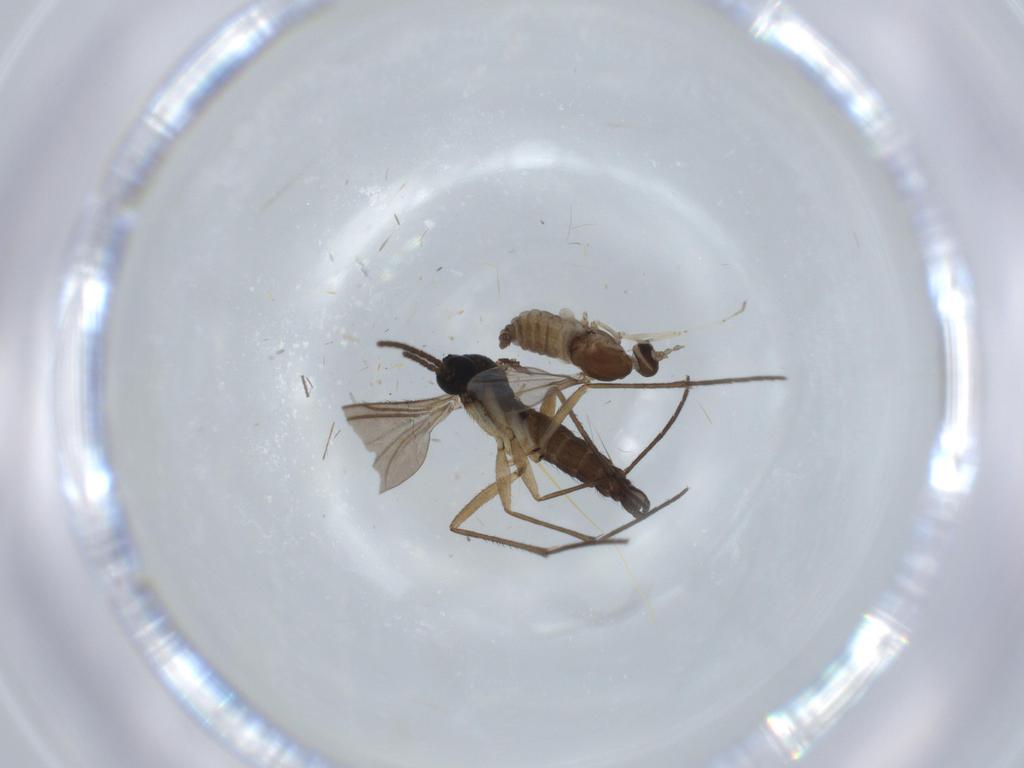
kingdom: Animalia
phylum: Arthropoda
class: Insecta
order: Diptera
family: Cecidomyiidae
